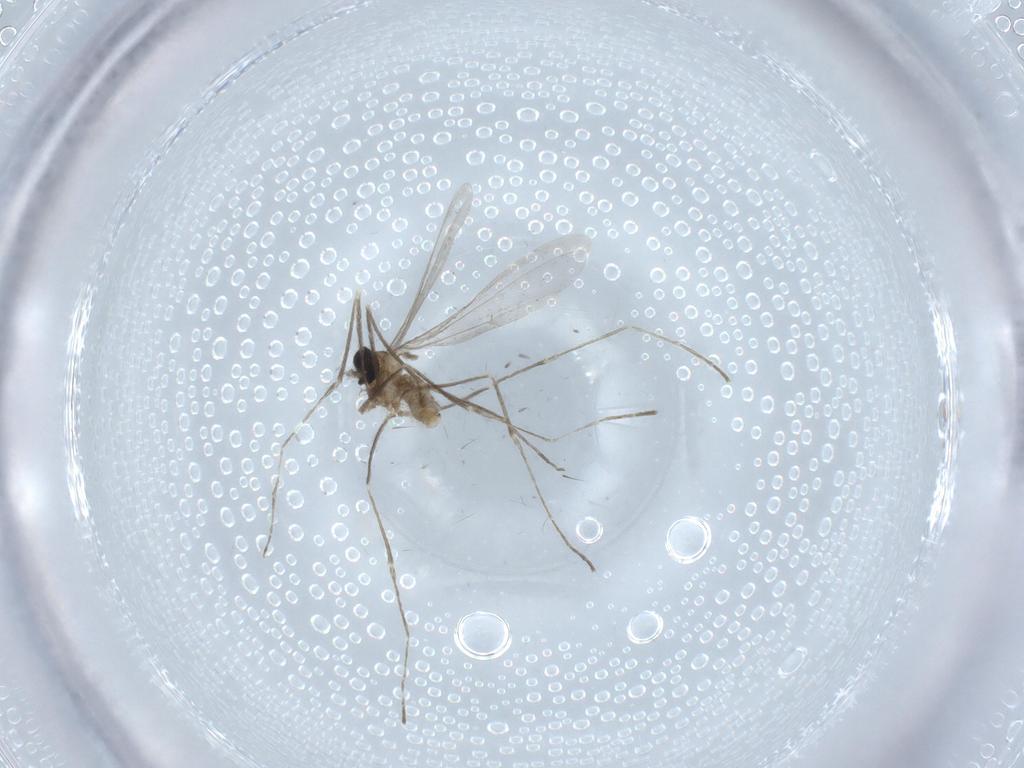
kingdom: Animalia
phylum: Arthropoda
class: Insecta
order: Diptera
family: Cecidomyiidae
